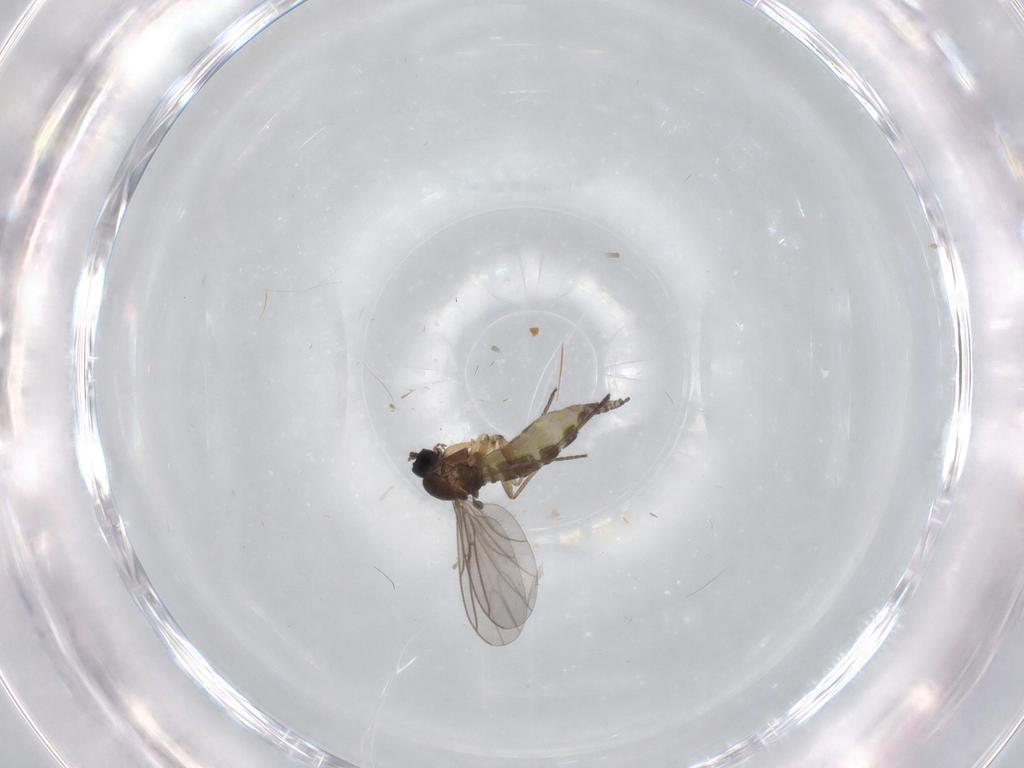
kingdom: Animalia
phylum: Arthropoda
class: Insecta
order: Diptera
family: Sciaridae
